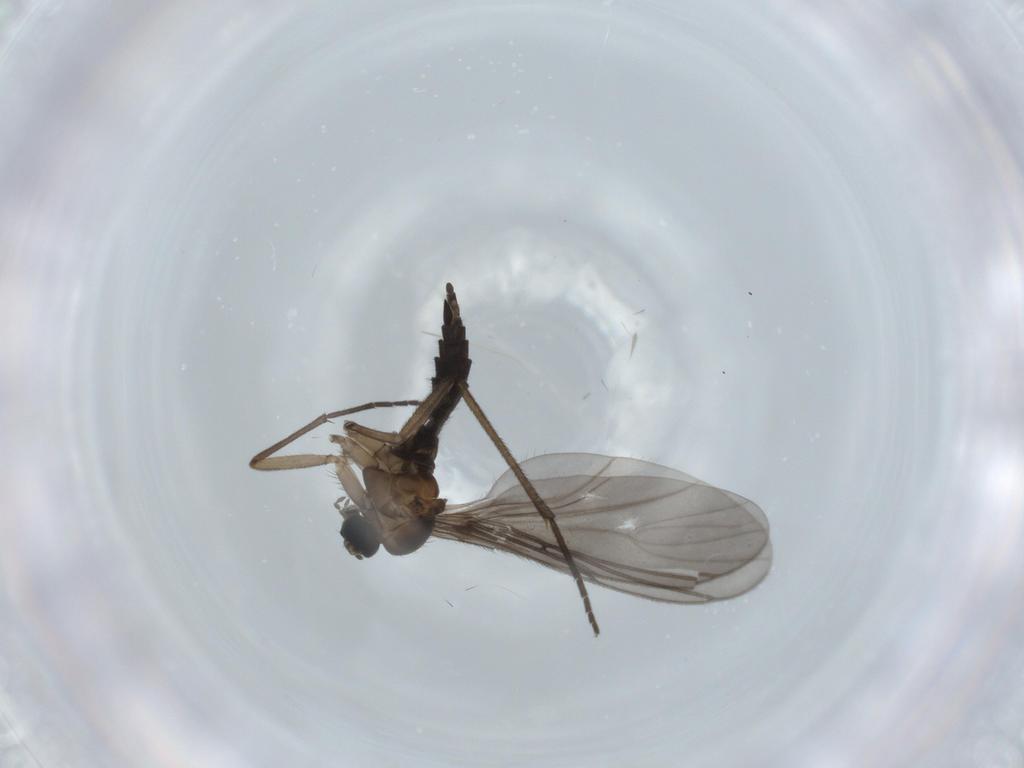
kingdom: Animalia
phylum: Arthropoda
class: Insecta
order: Diptera
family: Sciaridae
